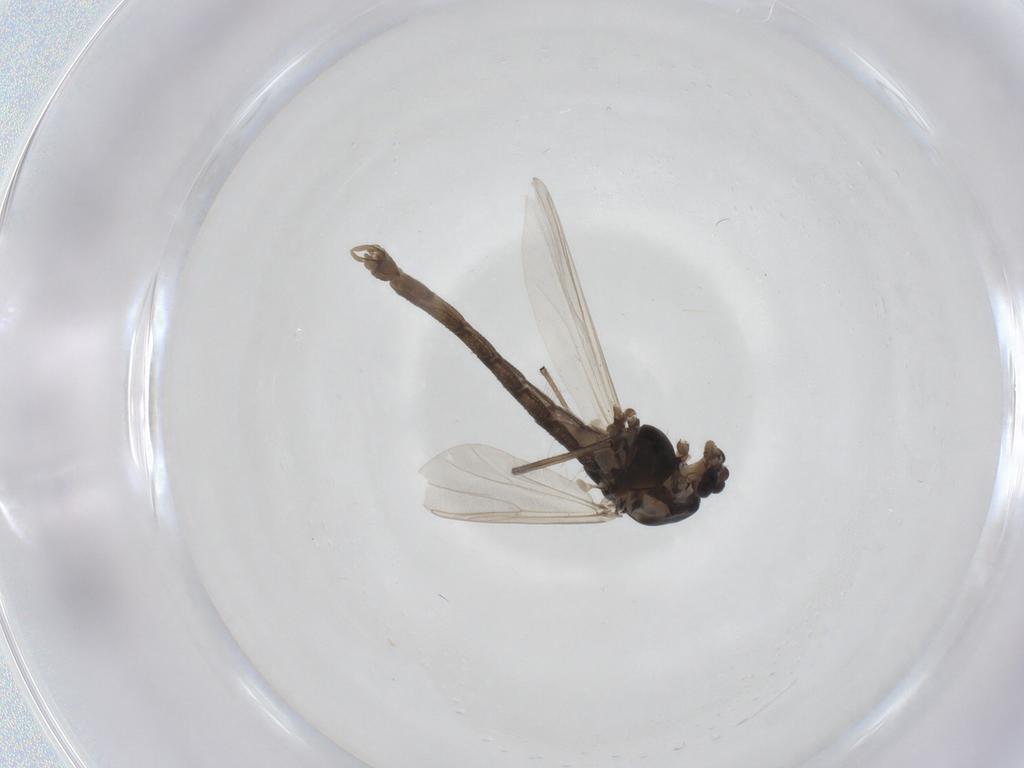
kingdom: Animalia
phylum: Arthropoda
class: Insecta
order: Diptera
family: Chironomidae
